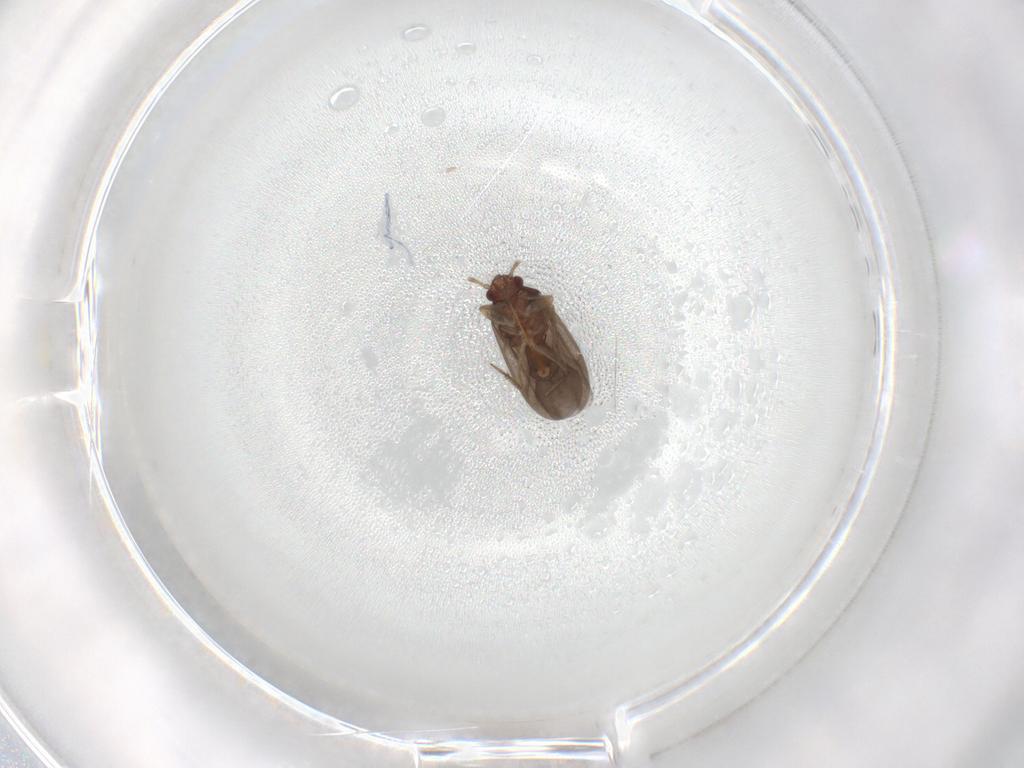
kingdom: Animalia
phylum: Arthropoda
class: Insecta
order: Hemiptera
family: Ceratocombidae
